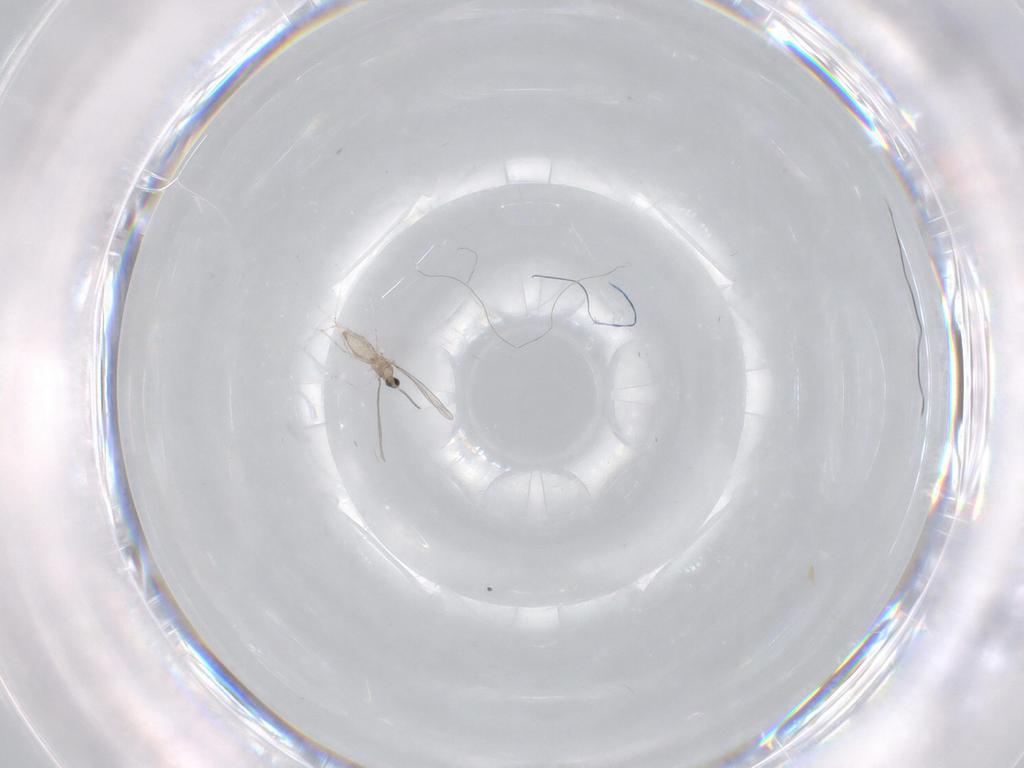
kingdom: Animalia
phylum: Arthropoda
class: Insecta
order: Diptera
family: Cecidomyiidae
